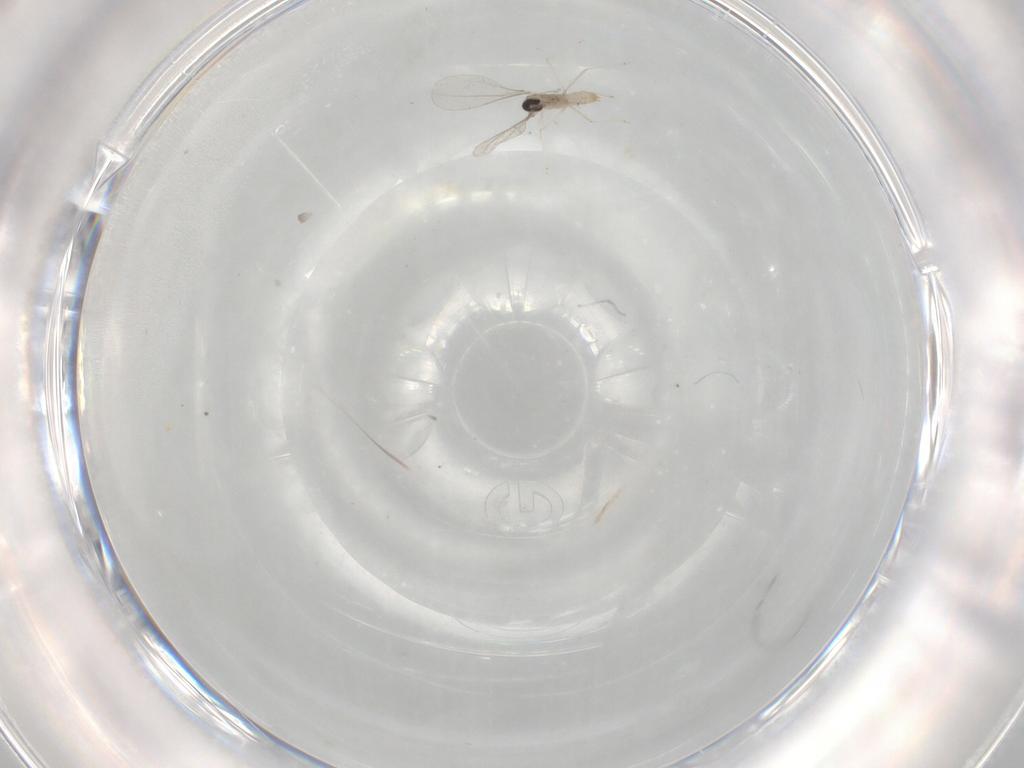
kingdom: Animalia
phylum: Arthropoda
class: Insecta
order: Diptera
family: Cecidomyiidae
